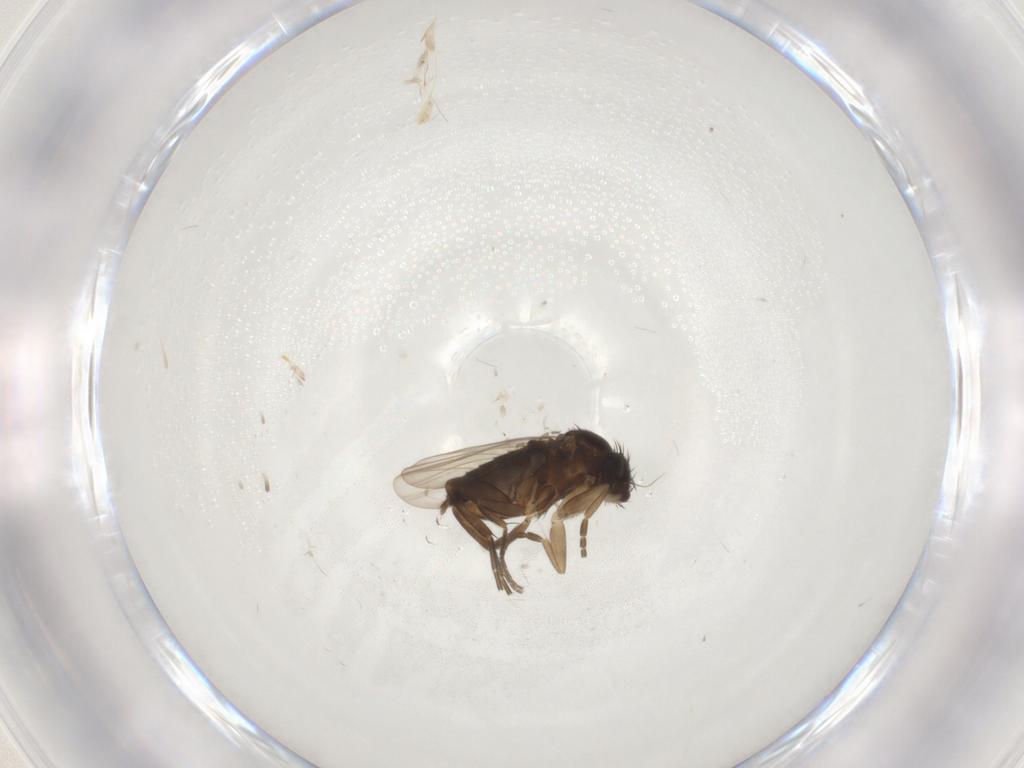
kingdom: Animalia
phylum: Arthropoda
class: Insecta
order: Diptera
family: Phoridae
